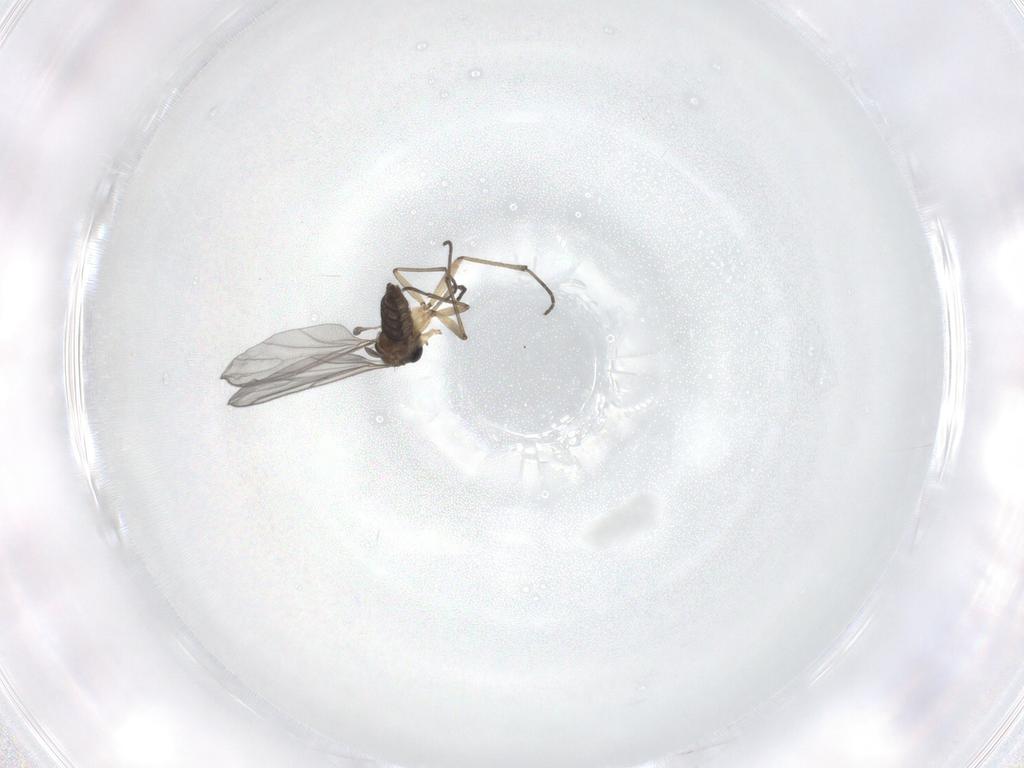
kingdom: Animalia
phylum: Arthropoda
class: Insecta
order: Diptera
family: Sciaridae
